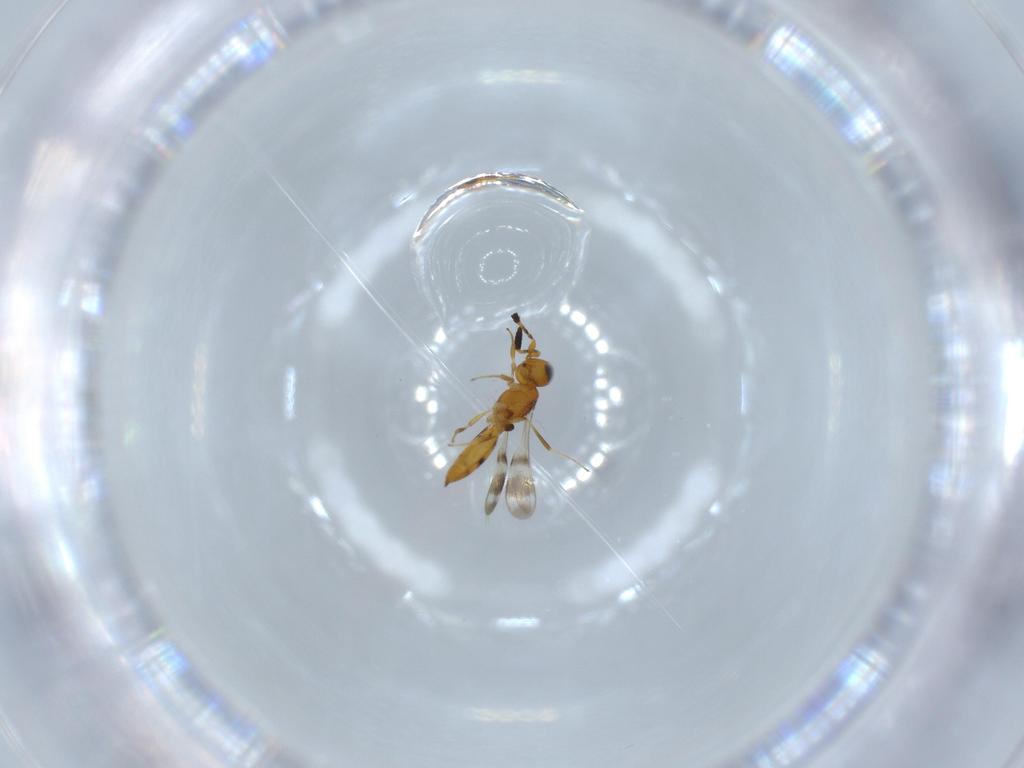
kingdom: Animalia
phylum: Arthropoda
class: Insecta
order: Hymenoptera
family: Scelionidae
